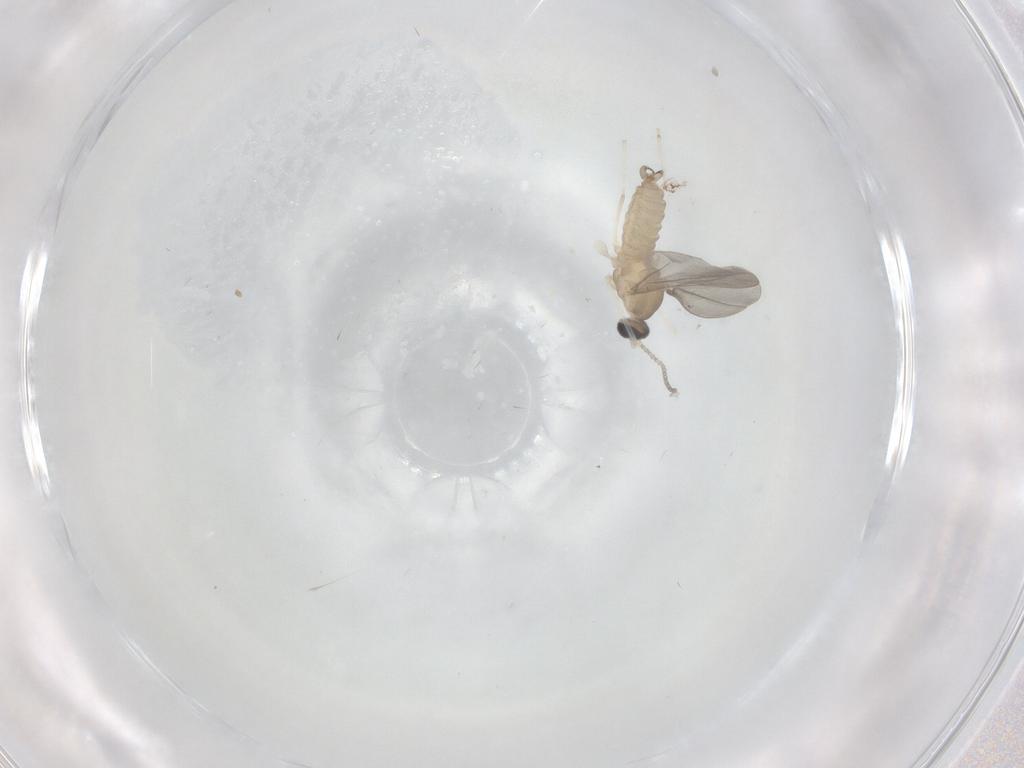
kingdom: Animalia
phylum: Arthropoda
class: Insecta
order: Diptera
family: Cecidomyiidae
